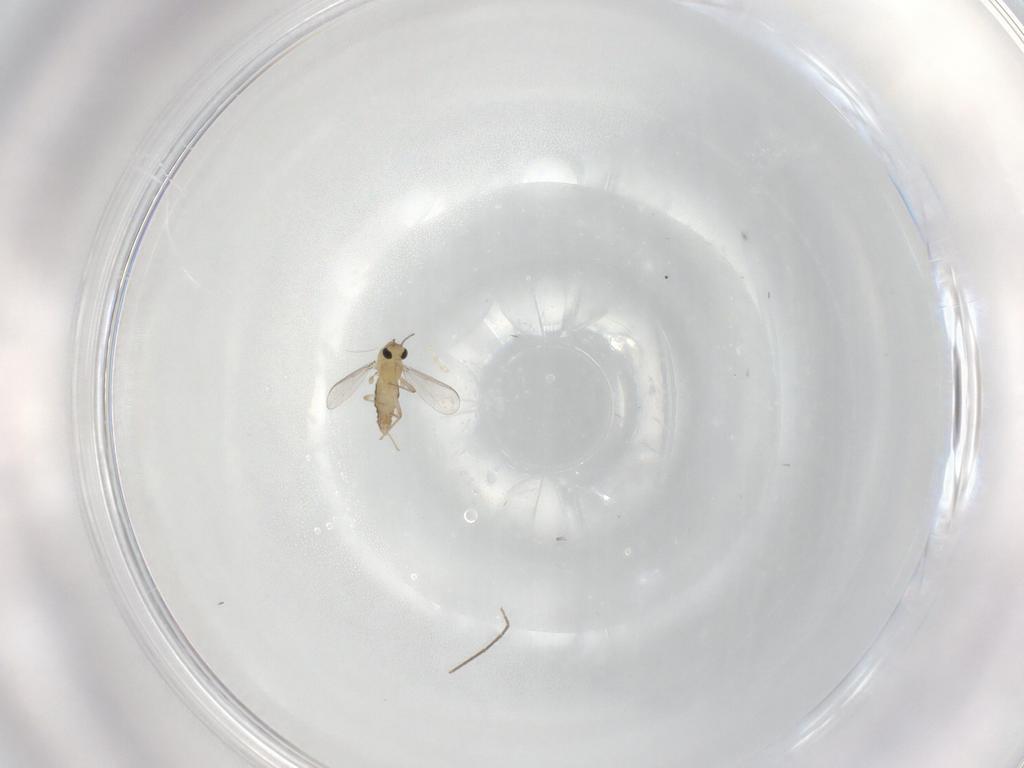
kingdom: Animalia
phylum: Arthropoda
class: Insecta
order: Diptera
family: Chironomidae
